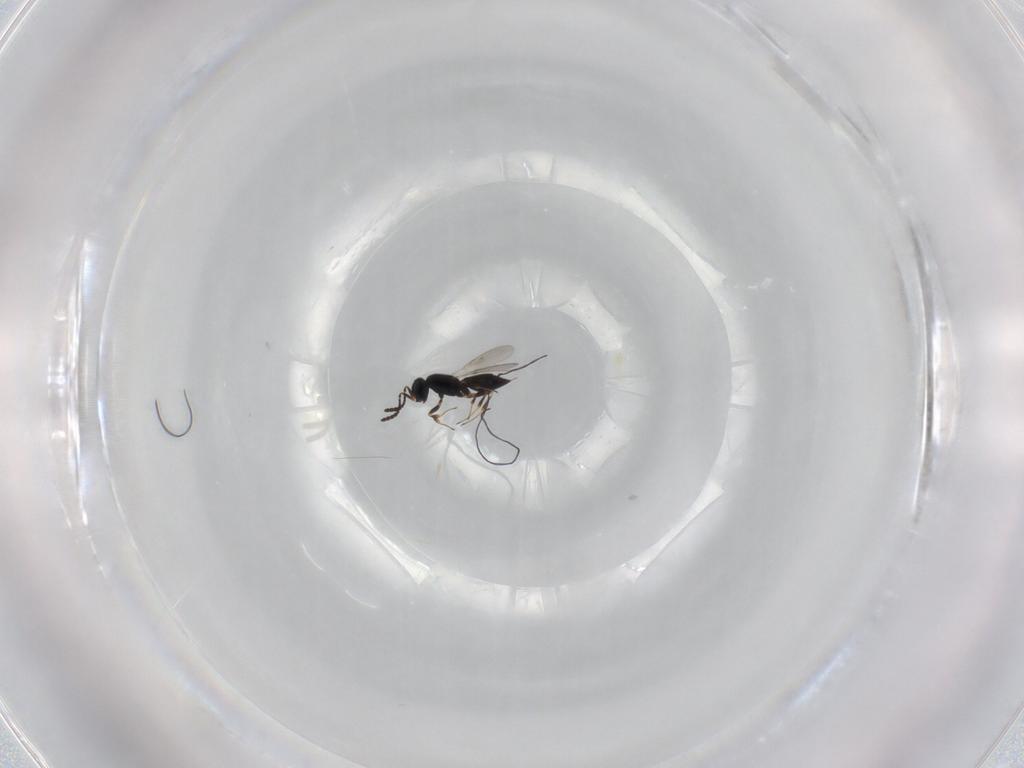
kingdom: Animalia
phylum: Arthropoda
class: Insecta
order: Hymenoptera
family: Scelionidae
